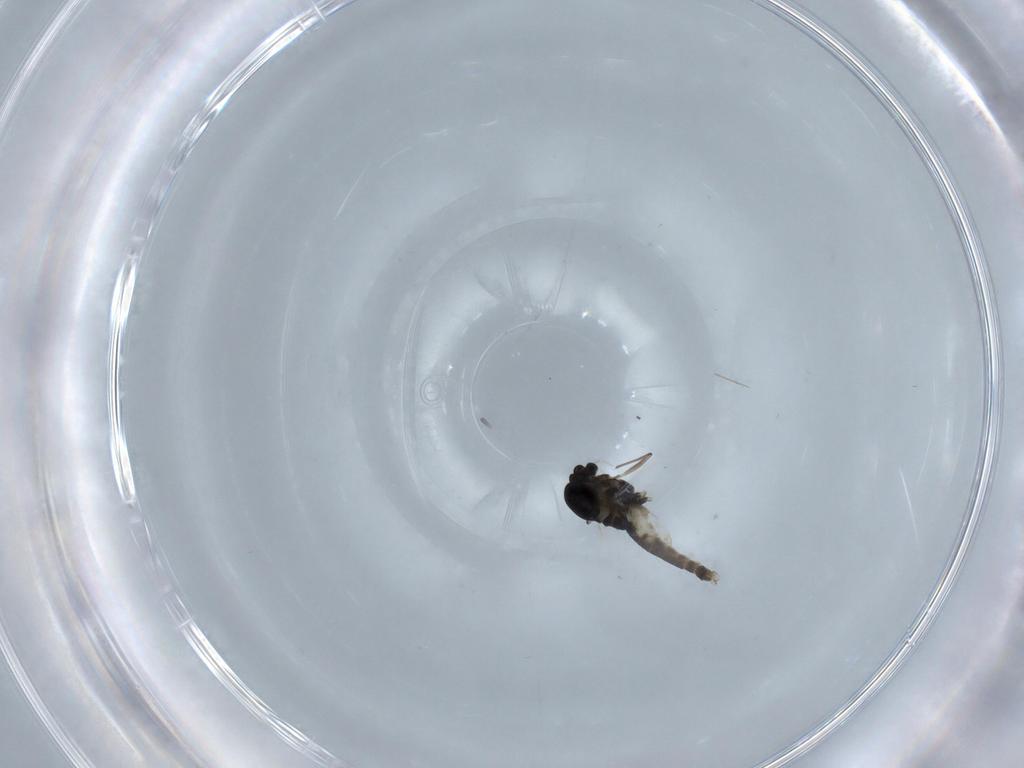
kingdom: Animalia
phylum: Arthropoda
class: Insecta
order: Diptera
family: Chironomidae
